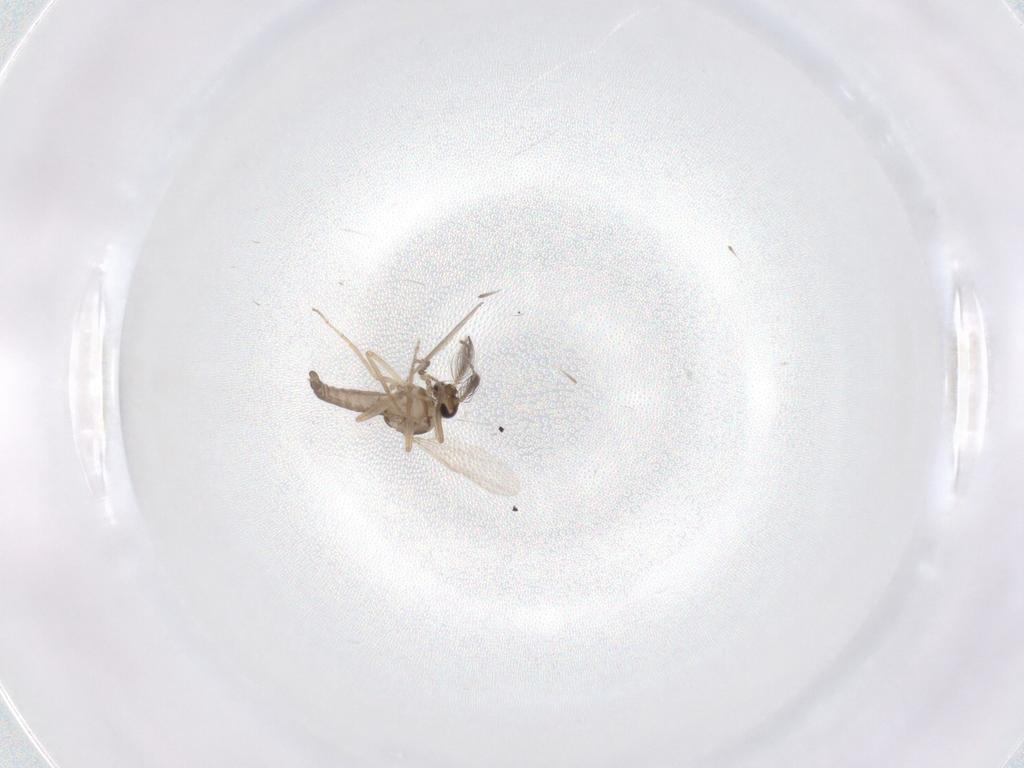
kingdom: Animalia
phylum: Arthropoda
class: Insecta
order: Diptera
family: Ceratopogonidae
